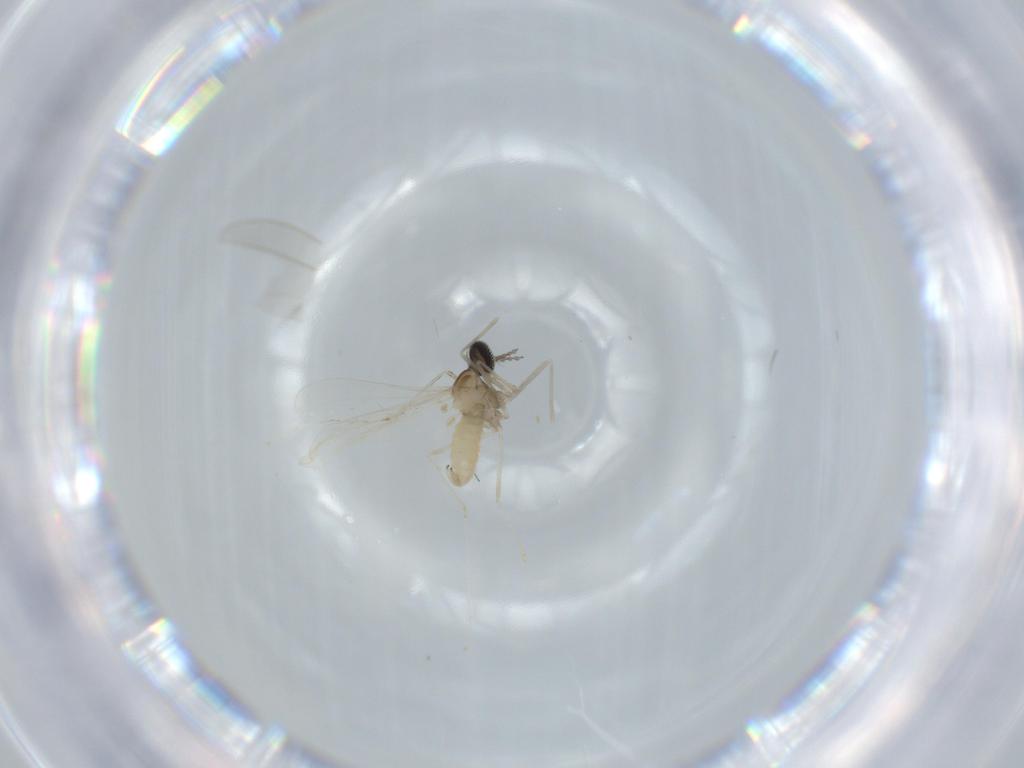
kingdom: Animalia
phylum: Arthropoda
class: Insecta
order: Diptera
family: Cecidomyiidae
